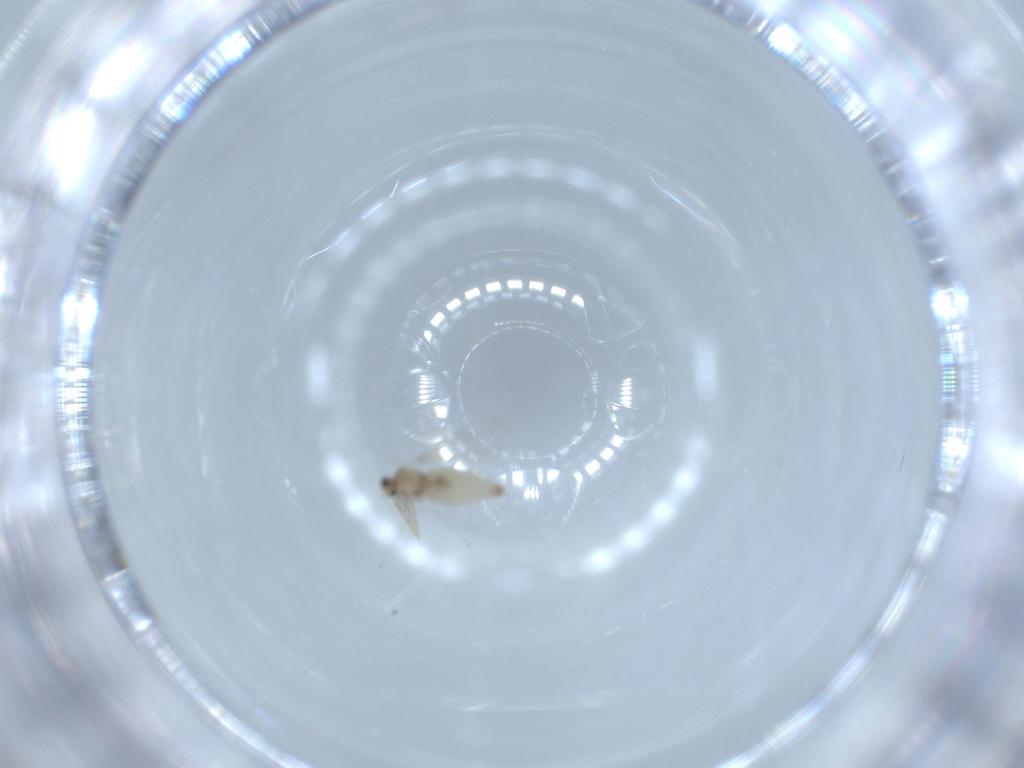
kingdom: Animalia
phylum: Arthropoda
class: Insecta
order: Diptera
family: Cecidomyiidae
